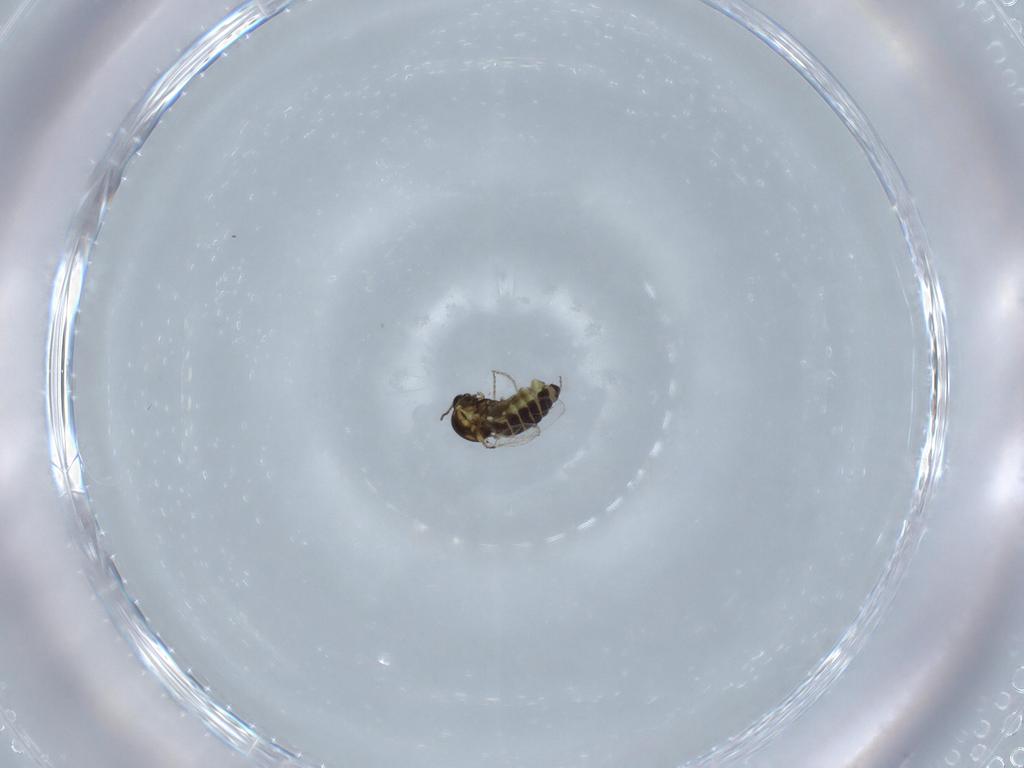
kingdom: Animalia
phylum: Arthropoda
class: Insecta
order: Diptera
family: Ceratopogonidae
